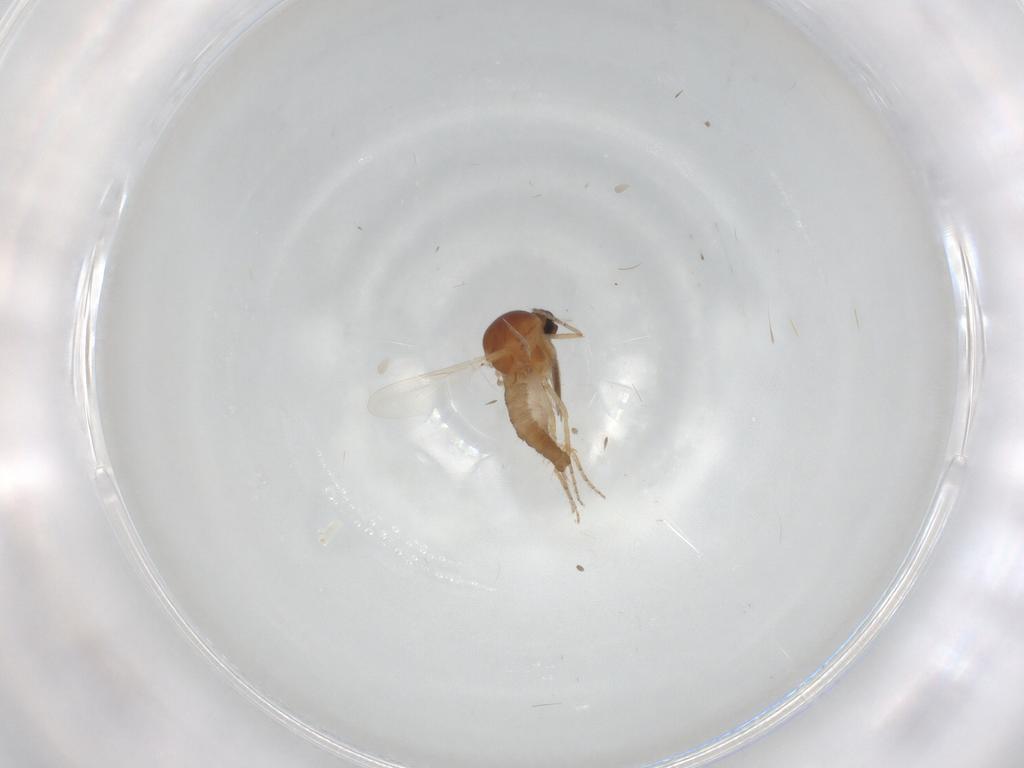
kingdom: Animalia
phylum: Arthropoda
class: Insecta
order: Diptera
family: Ceratopogonidae
